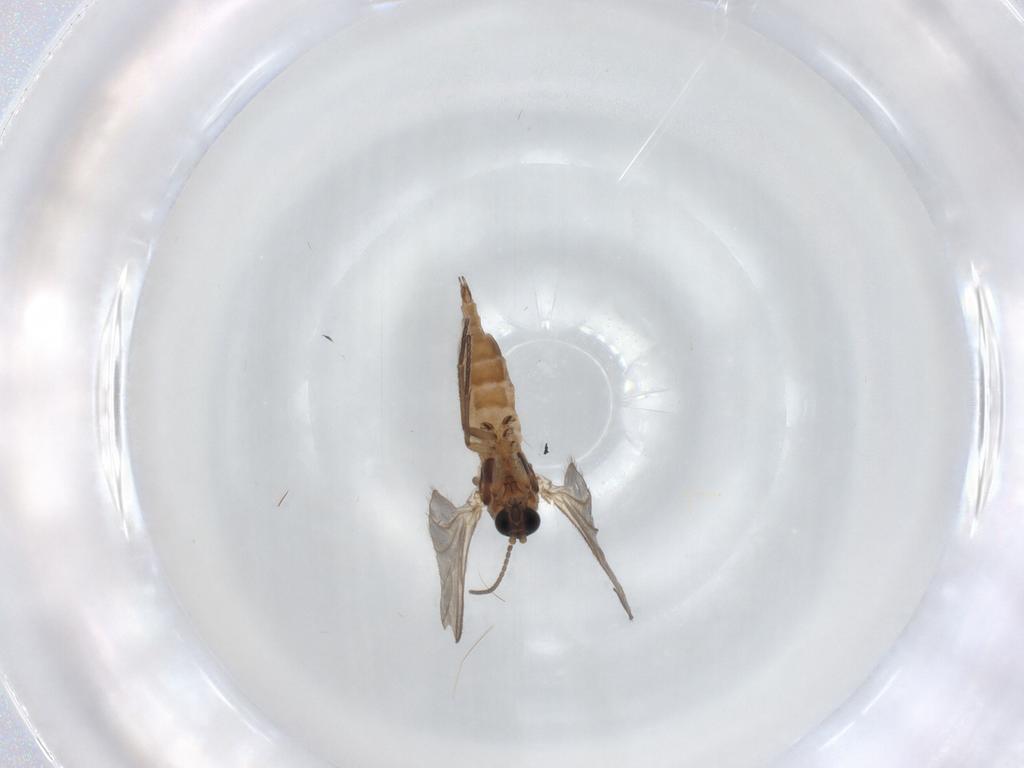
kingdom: Animalia
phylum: Arthropoda
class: Insecta
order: Diptera
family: Sciaridae
